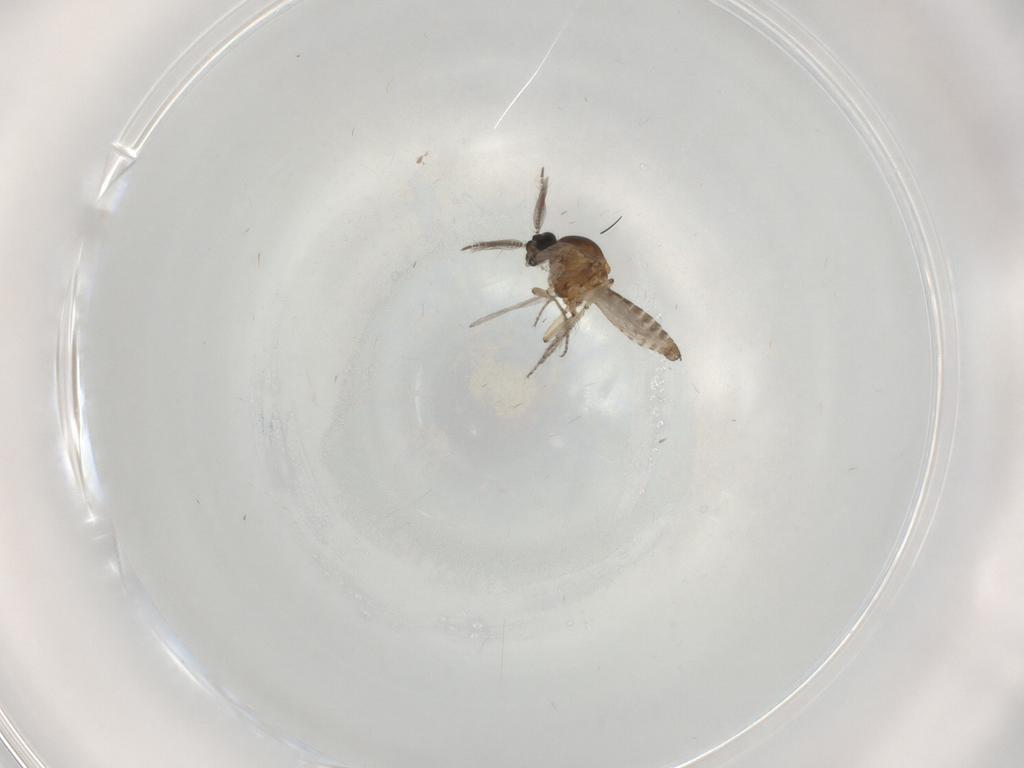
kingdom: Animalia
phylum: Arthropoda
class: Insecta
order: Diptera
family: Ceratopogonidae
